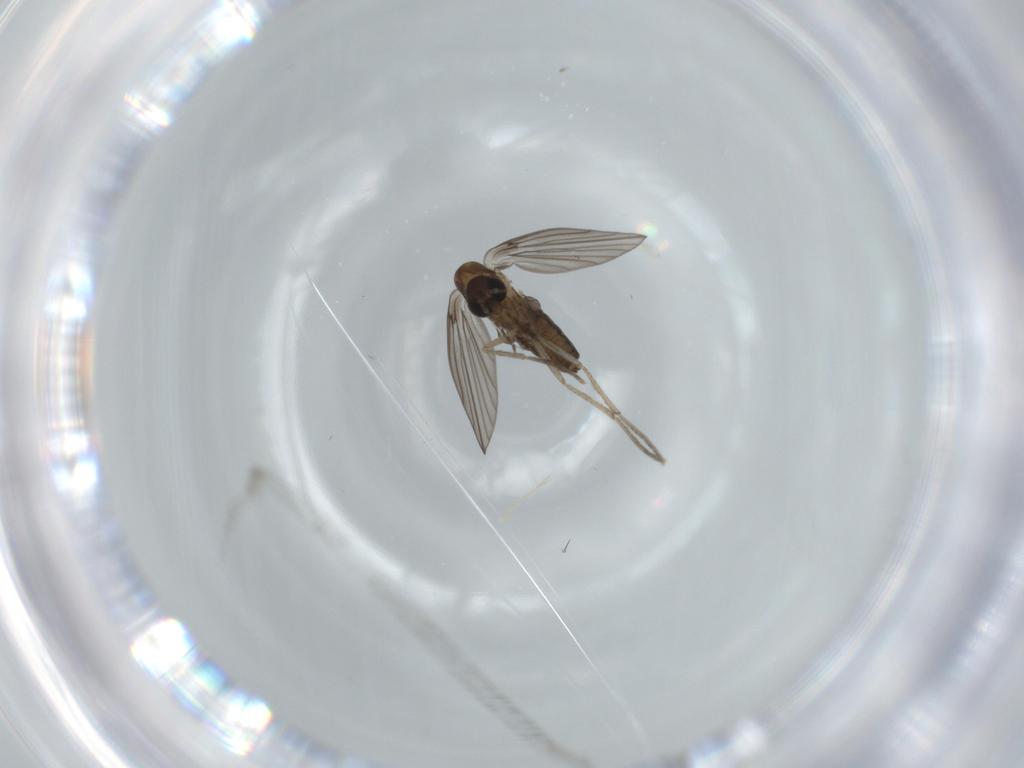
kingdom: Animalia
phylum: Arthropoda
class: Insecta
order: Diptera
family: Psychodidae
